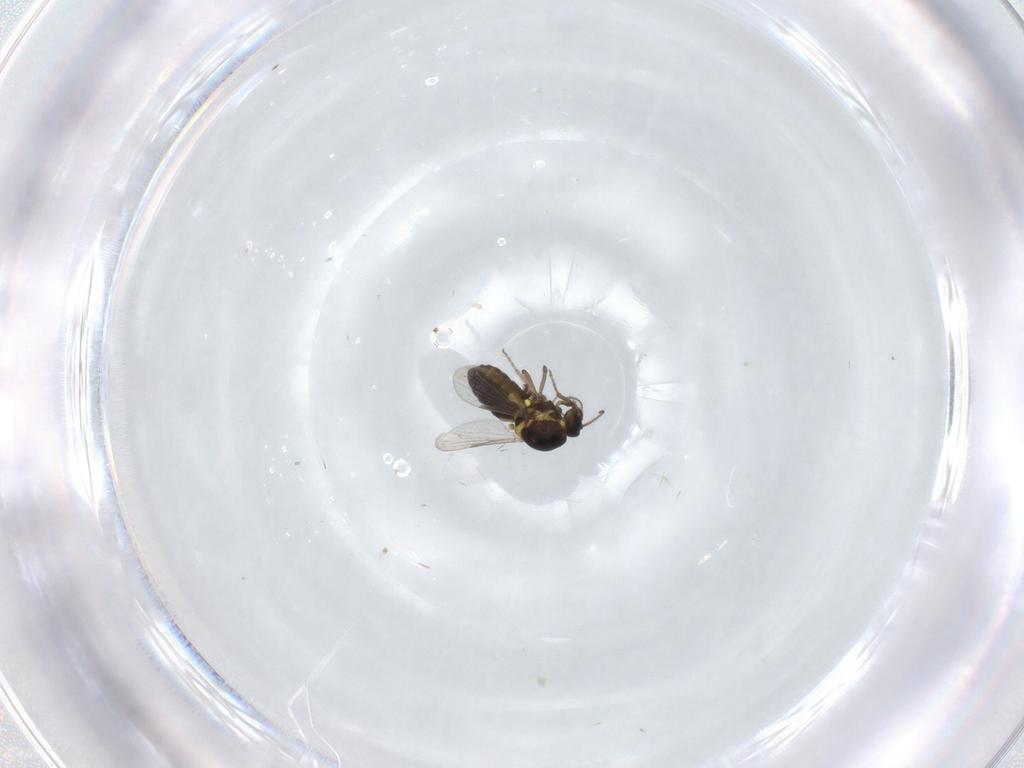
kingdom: Animalia
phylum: Arthropoda
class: Insecta
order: Diptera
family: Ceratopogonidae
